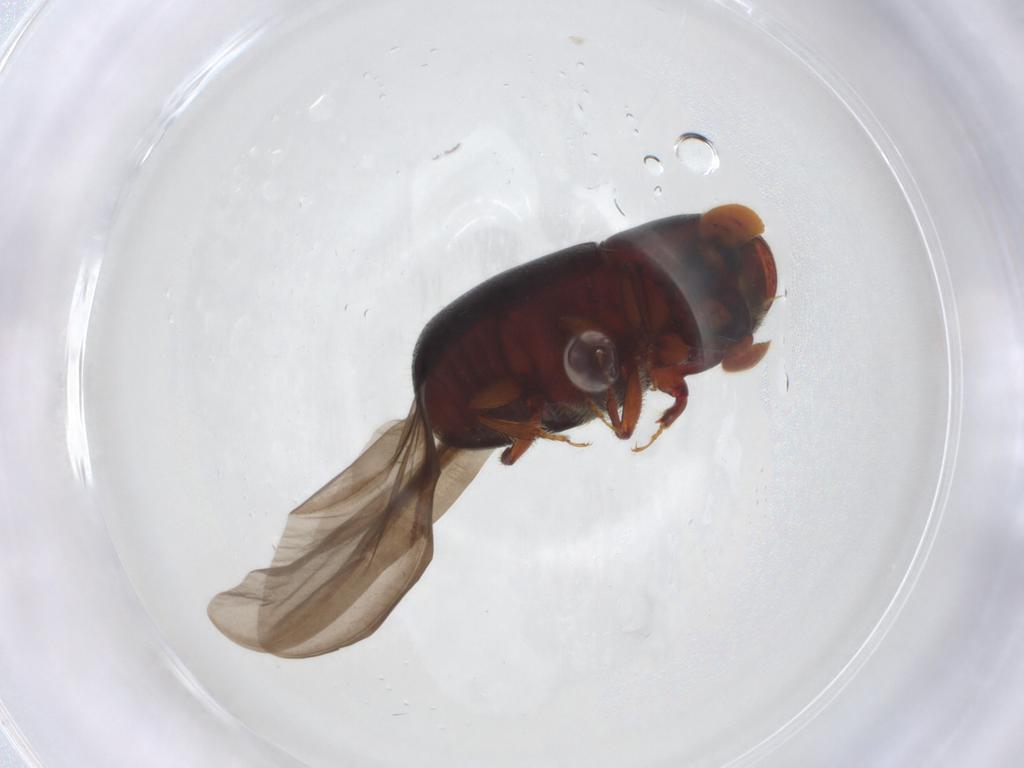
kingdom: Animalia
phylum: Arthropoda
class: Insecta
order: Coleoptera
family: Curculionidae
